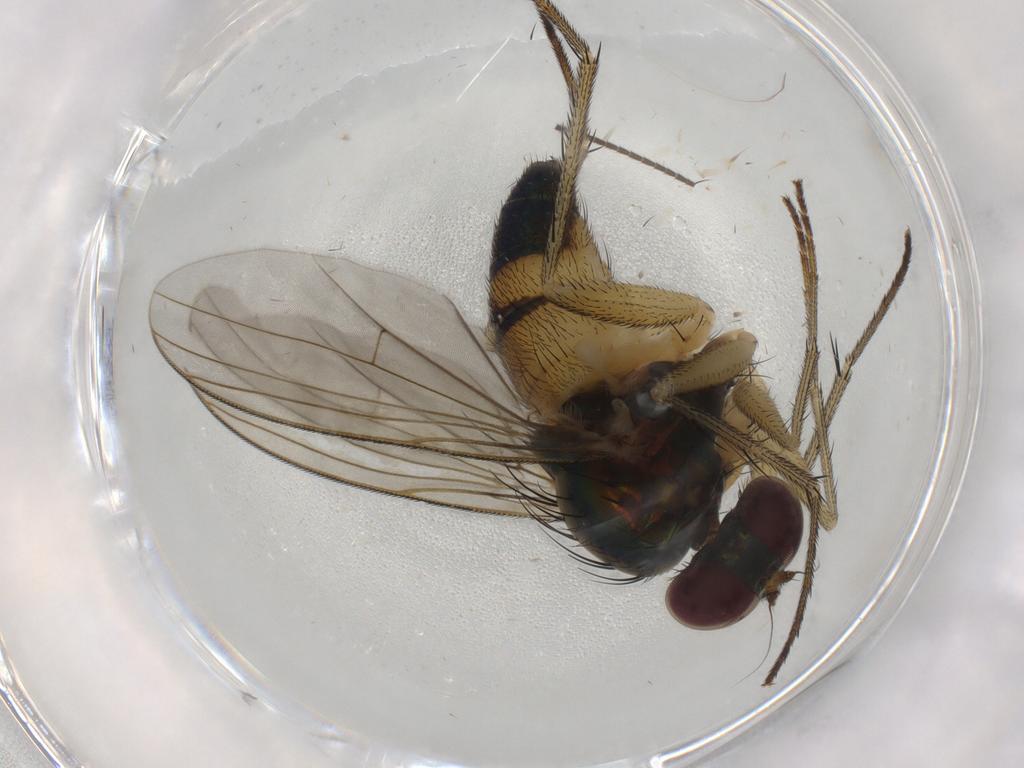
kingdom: Animalia
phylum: Arthropoda
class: Insecta
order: Diptera
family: Dolichopodidae
